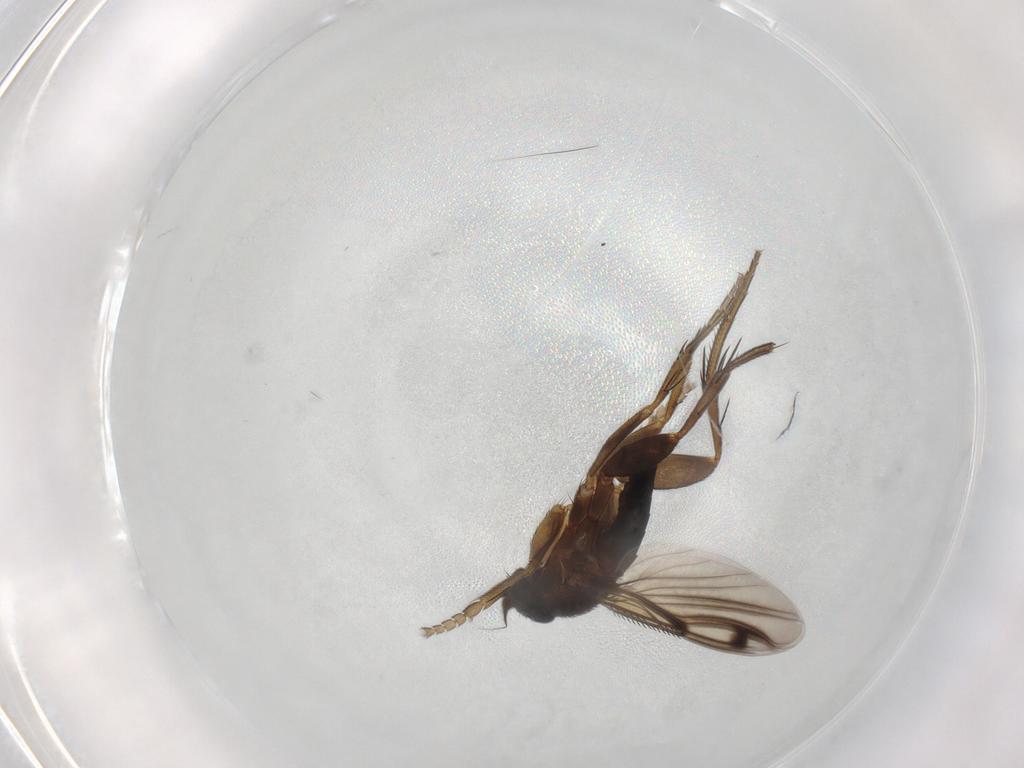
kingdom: Animalia
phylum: Arthropoda
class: Insecta
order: Diptera
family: Phoridae
